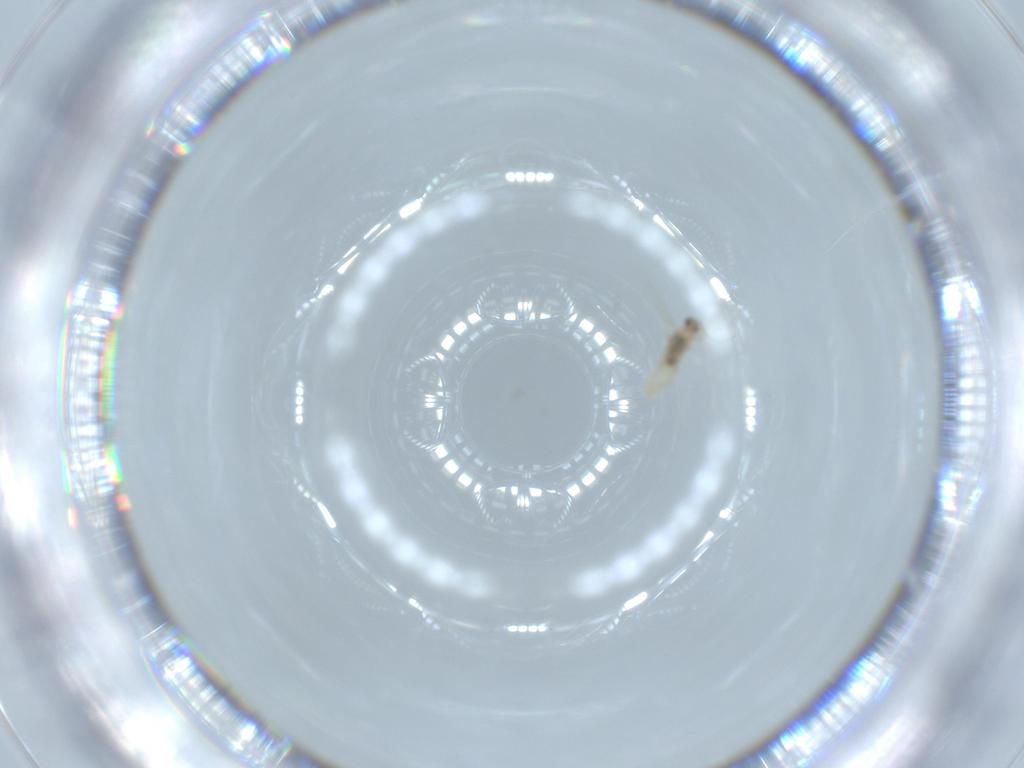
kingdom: Animalia
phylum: Arthropoda
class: Insecta
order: Diptera
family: Cecidomyiidae
